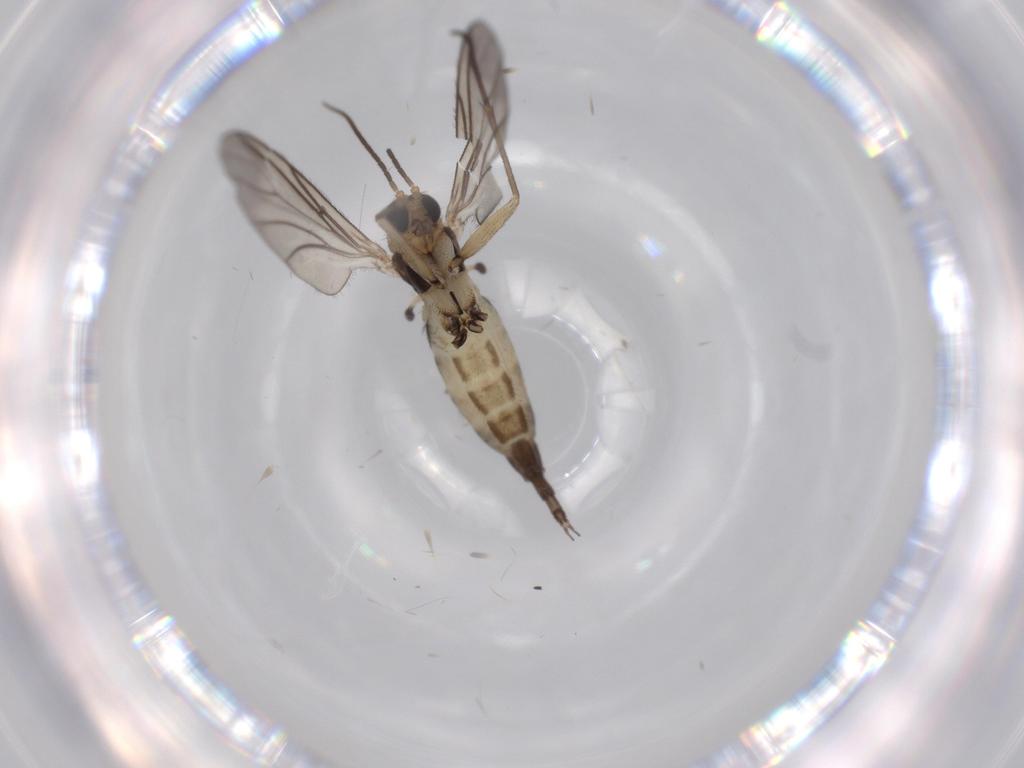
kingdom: Animalia
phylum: Arthropoda
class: Insecta
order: Diptera
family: Sciaridae
